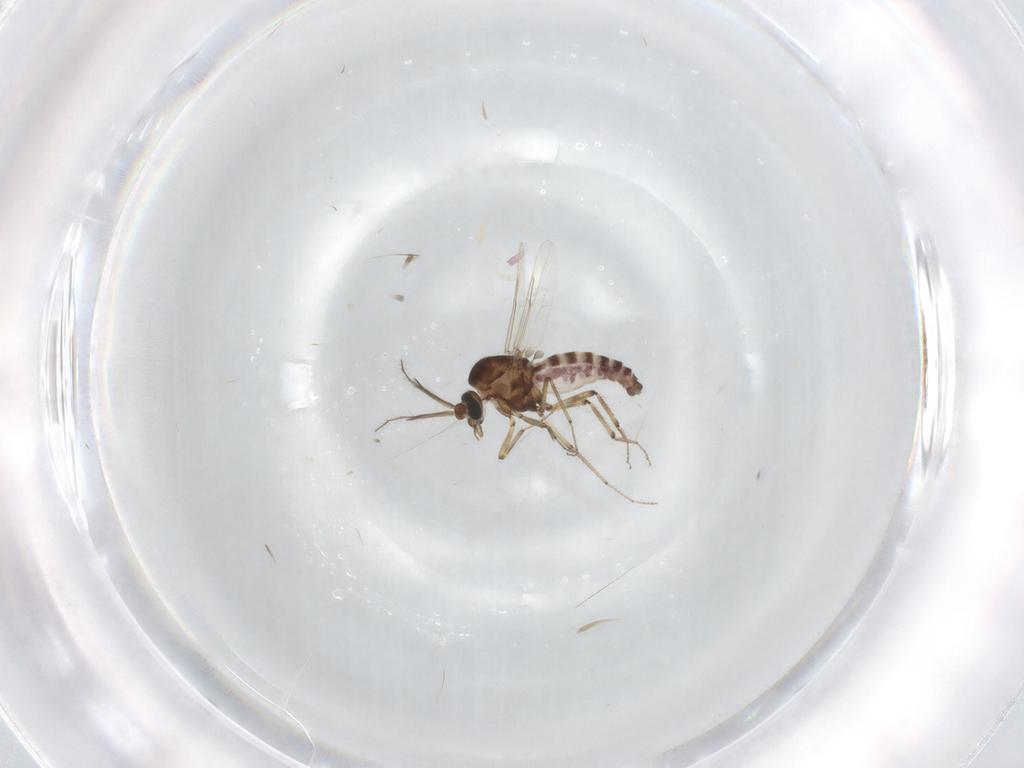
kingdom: Animalia
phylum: Arthropoda
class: Insecta
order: Diptera
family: Ceratopogonidae
